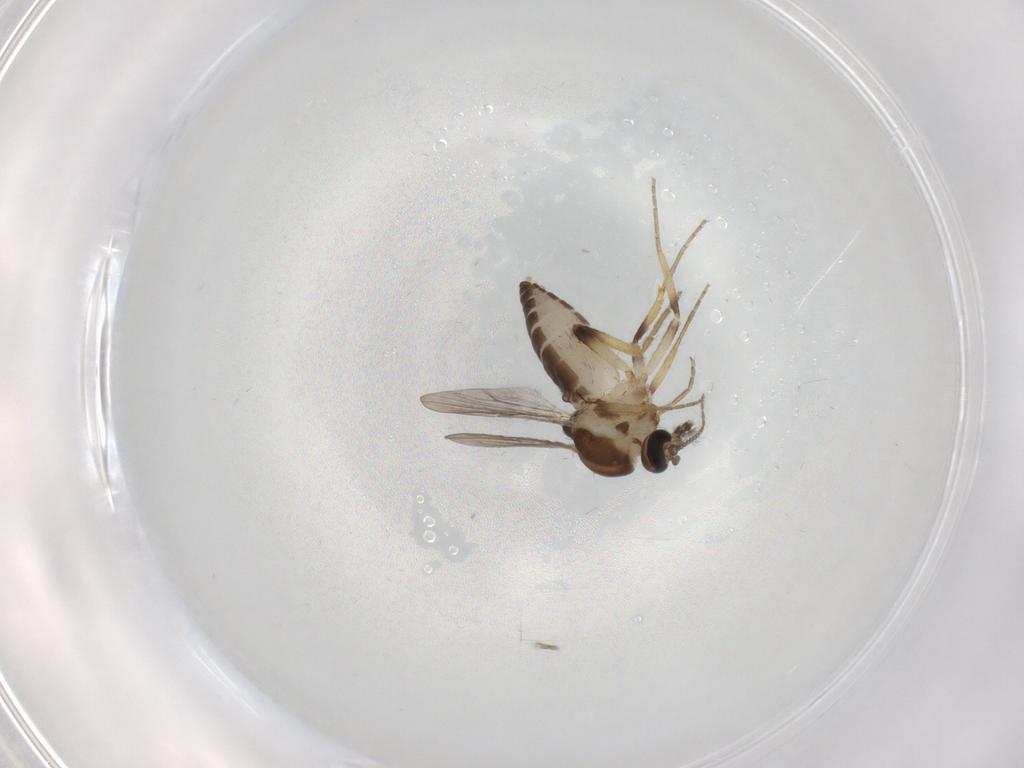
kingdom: Animalia
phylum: Arthropoda
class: Insecta
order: Diptera
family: Ceratopogonidae
